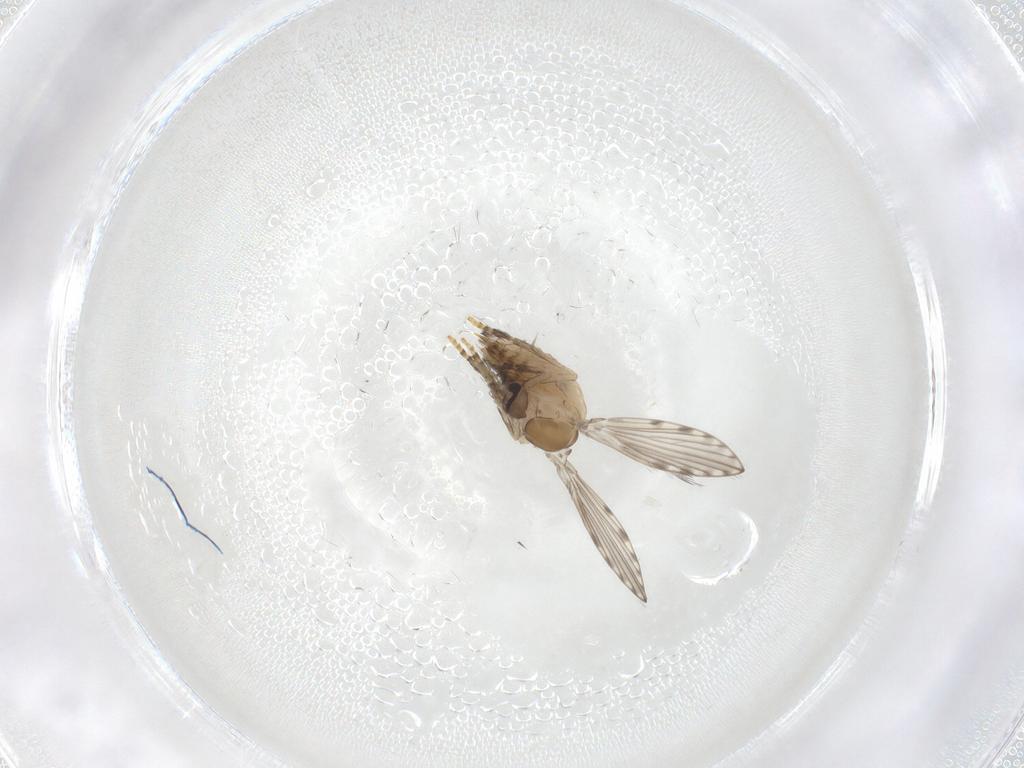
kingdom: Animalia
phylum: Arthropoda
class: Insecta
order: Diptera
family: Psychodidae
